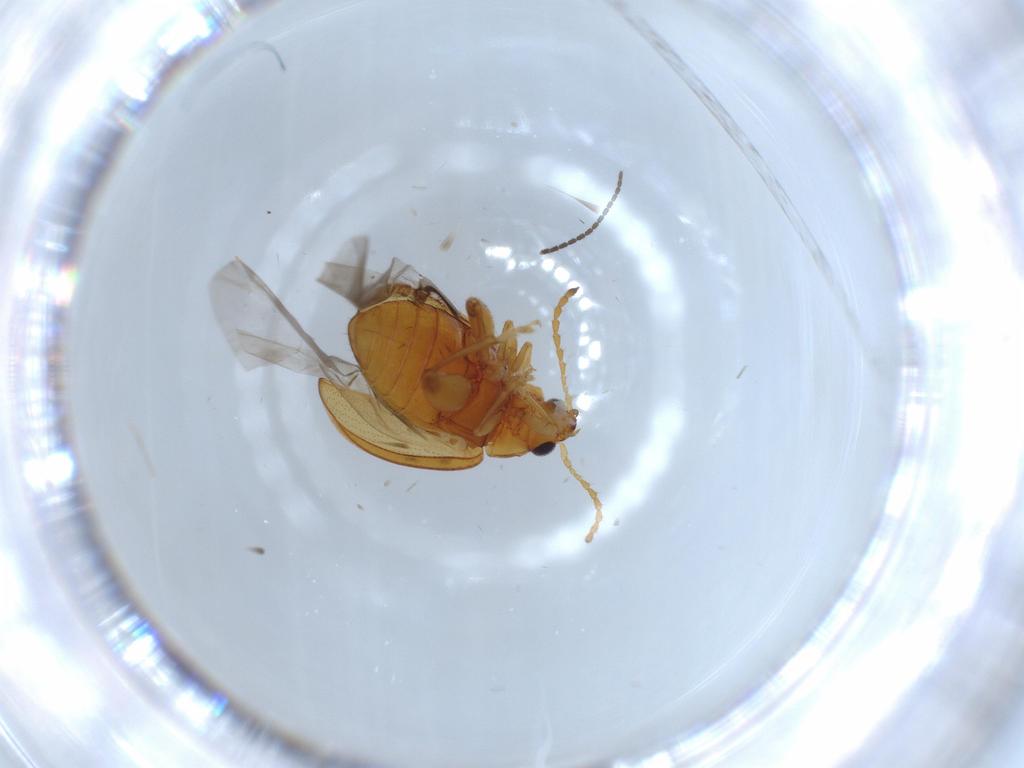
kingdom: Animalia
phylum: Arthropoda
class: Insecta
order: Coleoptera
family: Chrysomelidae
